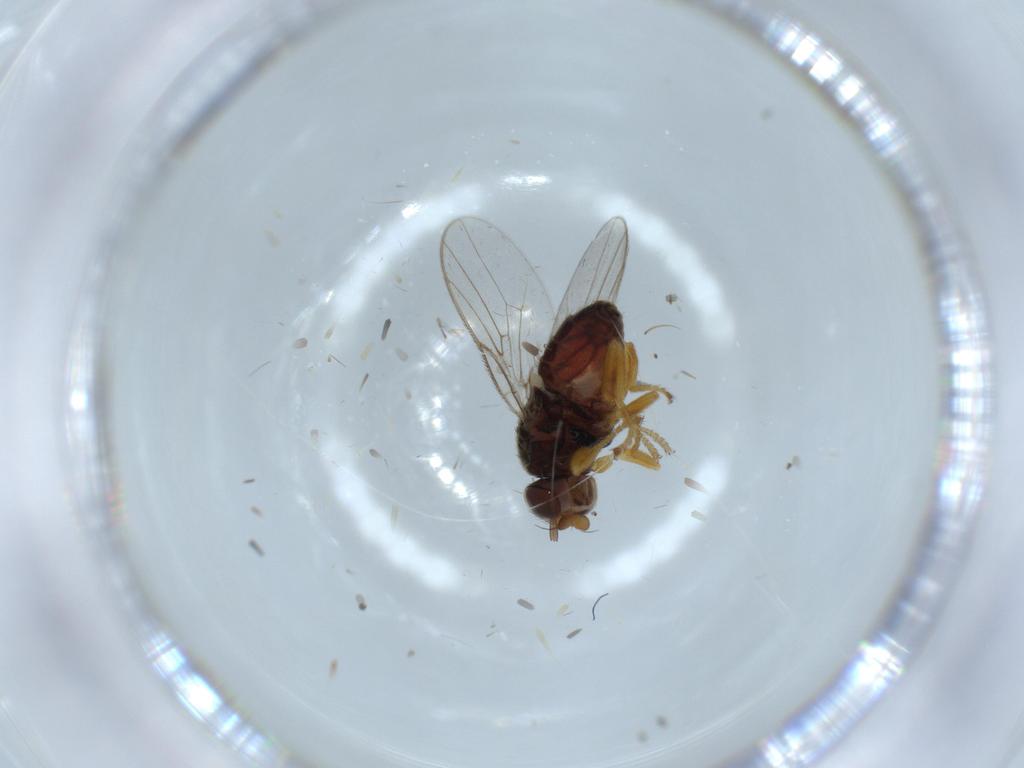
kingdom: Animalia
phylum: Arthropoda
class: Insecta
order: Diptera
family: Chloropidae
